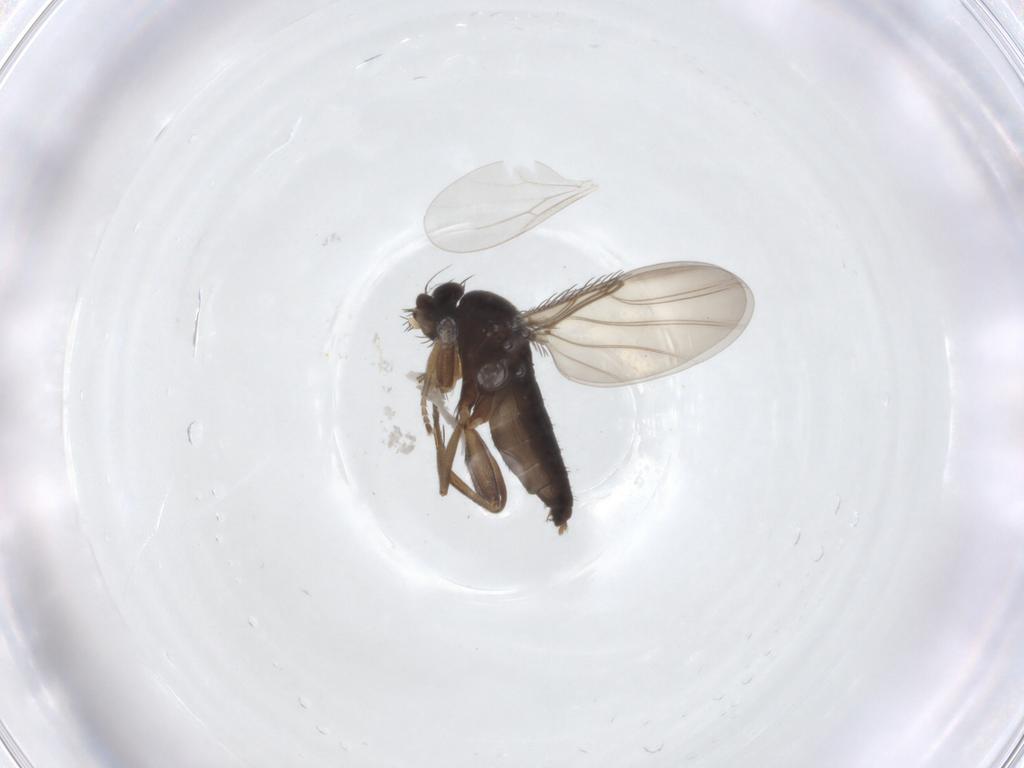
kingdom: Animalia
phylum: Arthropoda
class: Insecta
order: Diptera
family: Phoridae
